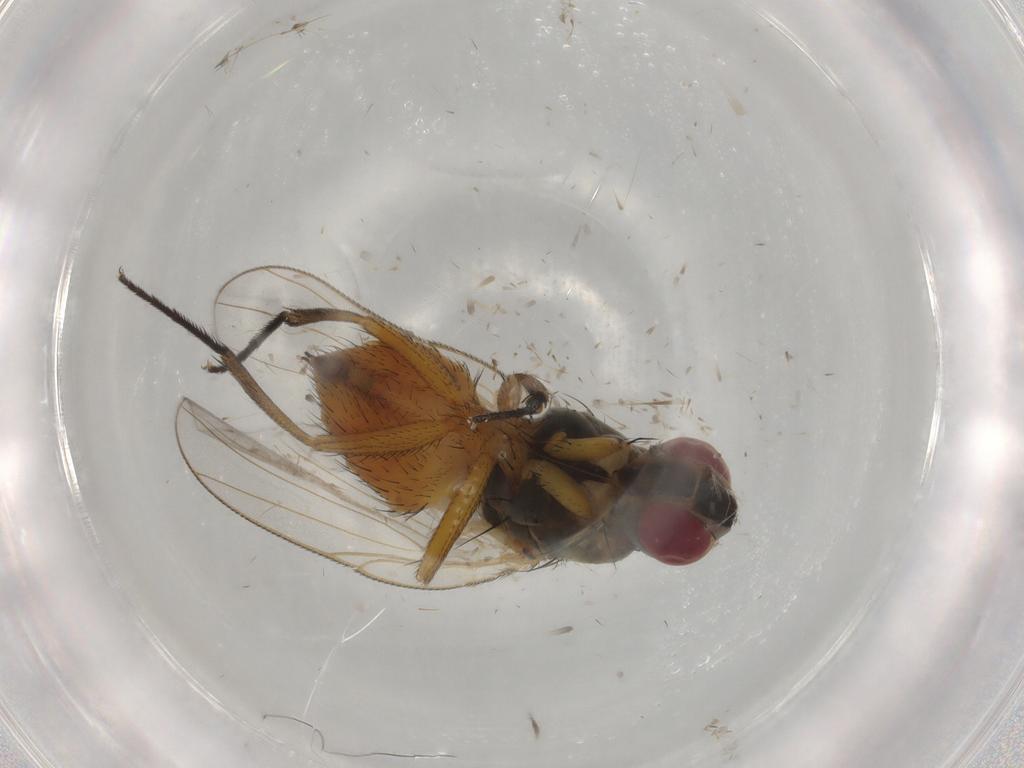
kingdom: Animalia
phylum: Arthropoda
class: Insecta
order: Diptera
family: Muscidae
